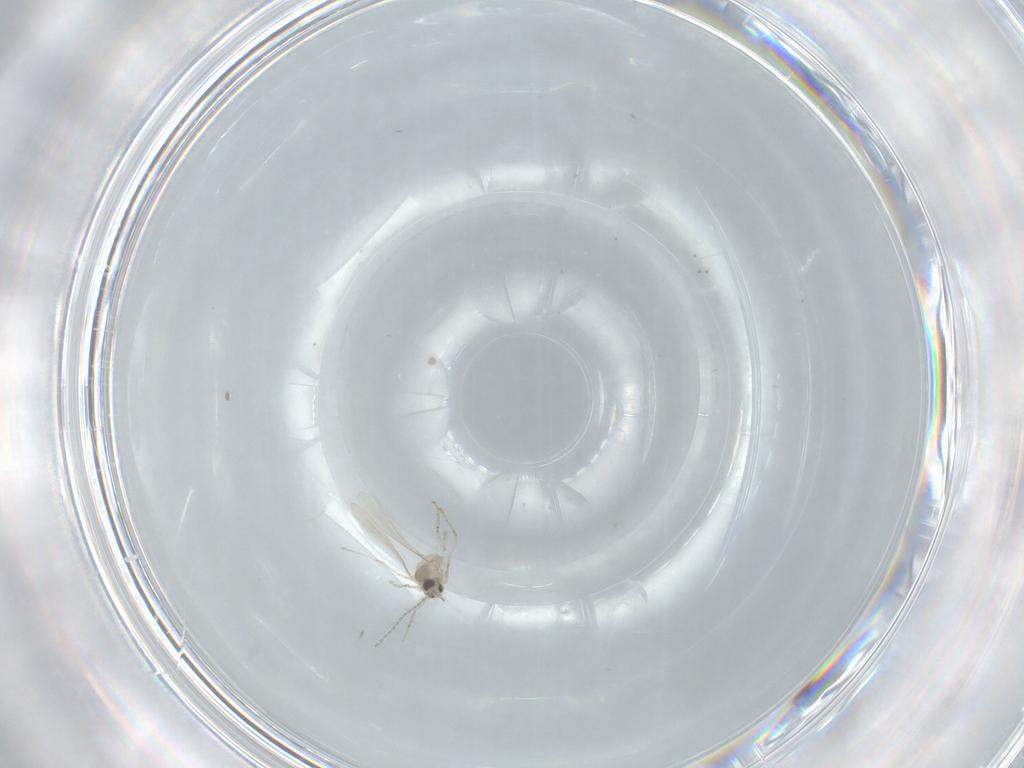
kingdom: Animalia
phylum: Arthropoda
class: Insecta
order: Diptera
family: Cecidomyiidae
